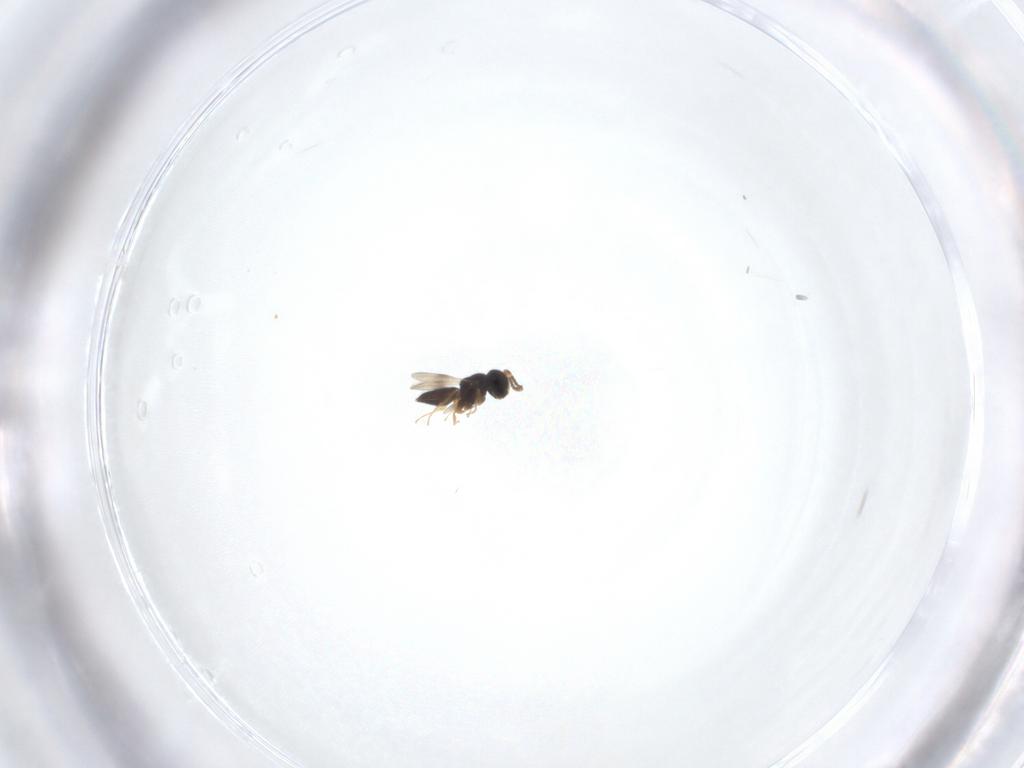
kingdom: Animalia
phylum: Arthropoda
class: Insecta
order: Hymenoptera
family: Scelionidae
